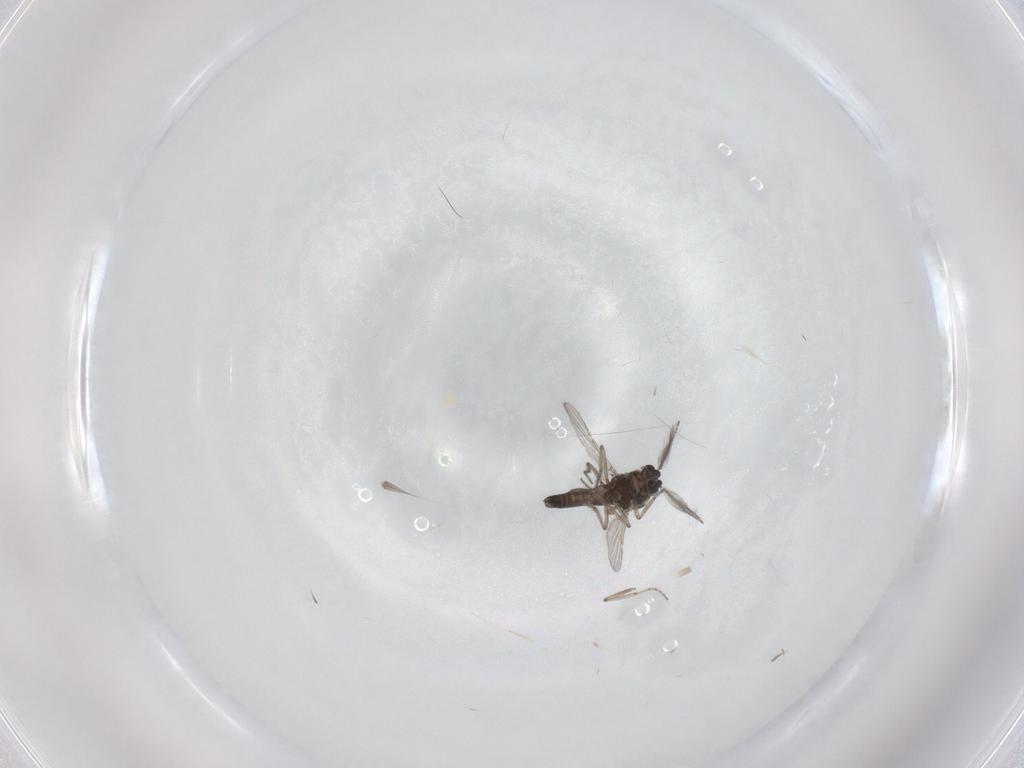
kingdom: Animalia
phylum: Arthropoda
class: Insecta
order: Diptera
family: Ceratopogonidae
